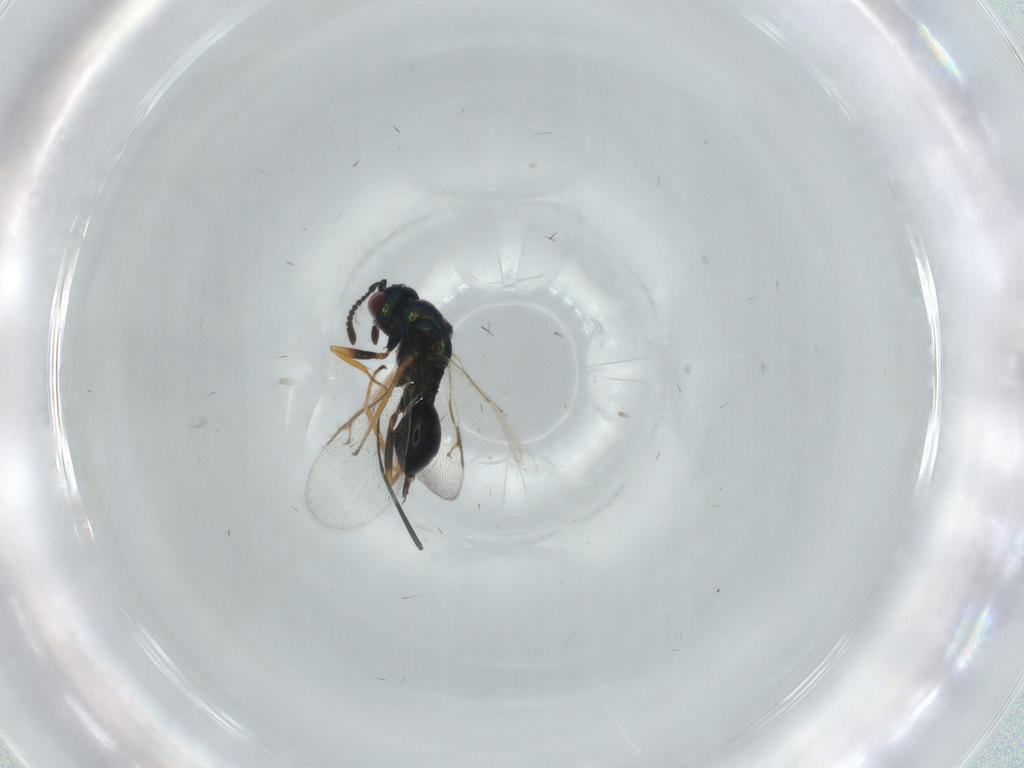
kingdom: Animalia
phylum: Arthropoda
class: Insecta
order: Hymenoptera
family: Pteromalidae
